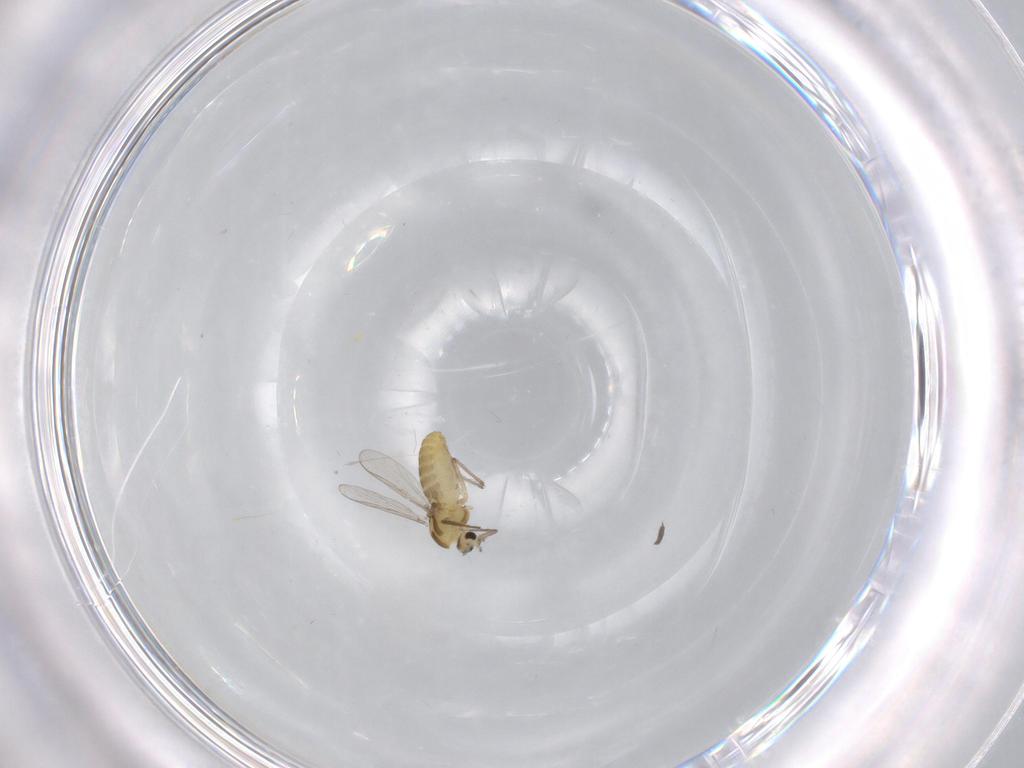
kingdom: Animalia
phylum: Arthropoda
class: Insecta
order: Diptera
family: Chironomidae
